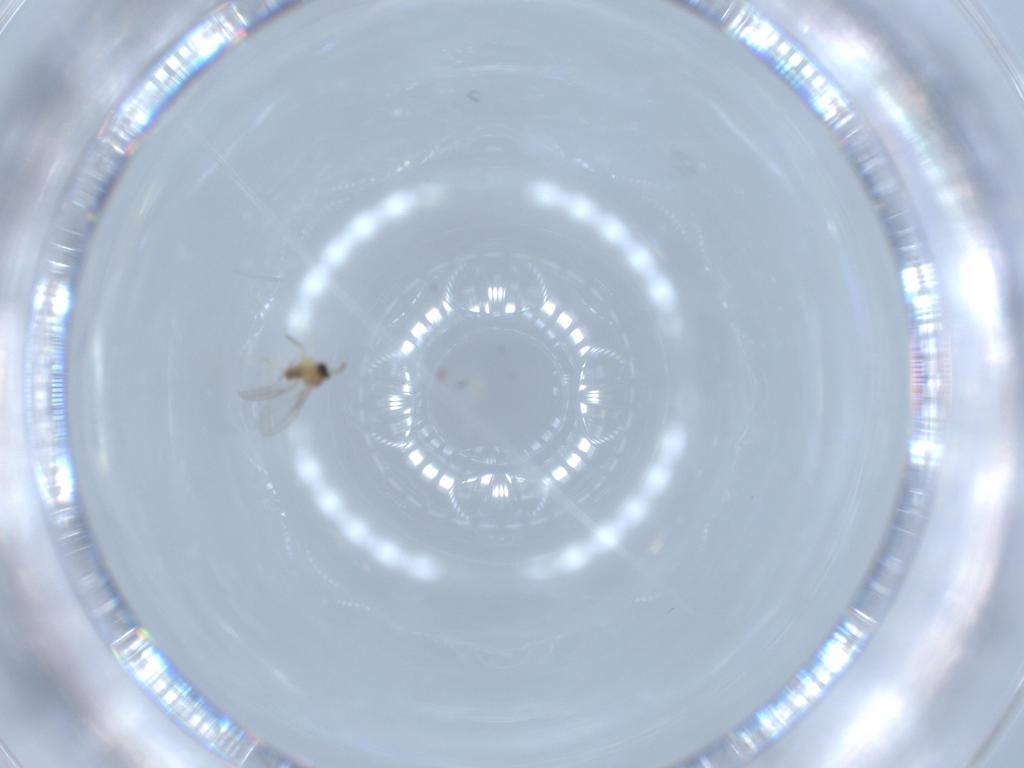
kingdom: Animalia
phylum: Arthropoda
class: Insecta
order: Diptera
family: Cecidomyiidae
